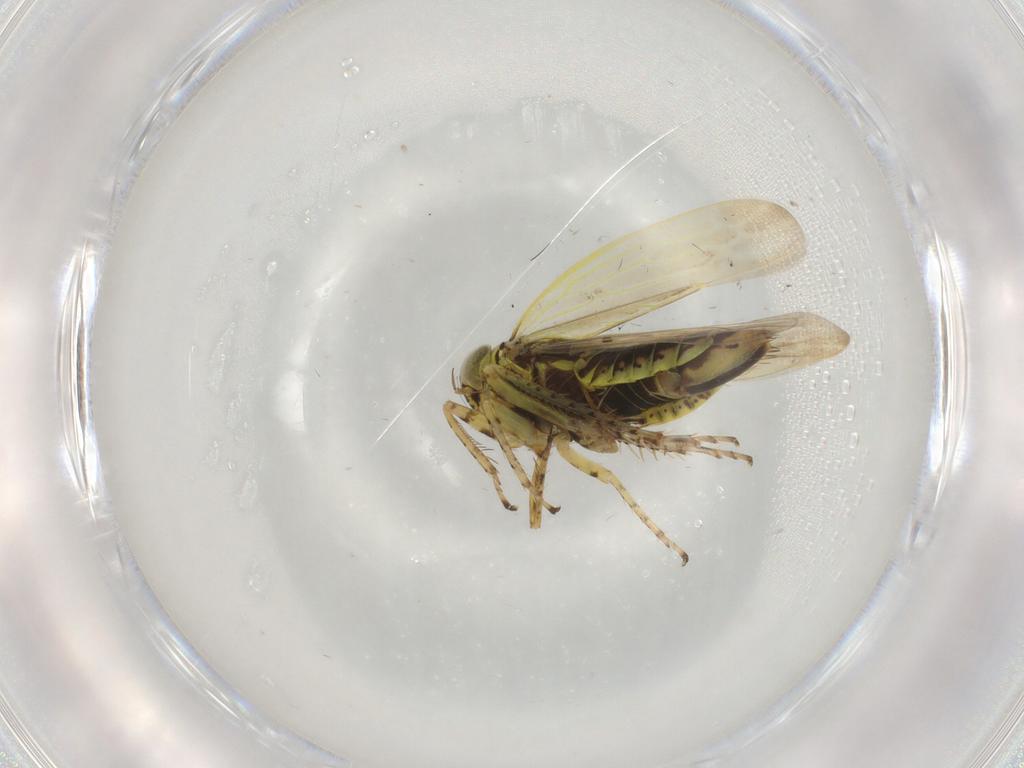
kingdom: Animalia
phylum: Arthropoda
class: Insecta
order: Hemiptera
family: Cicadellidae
